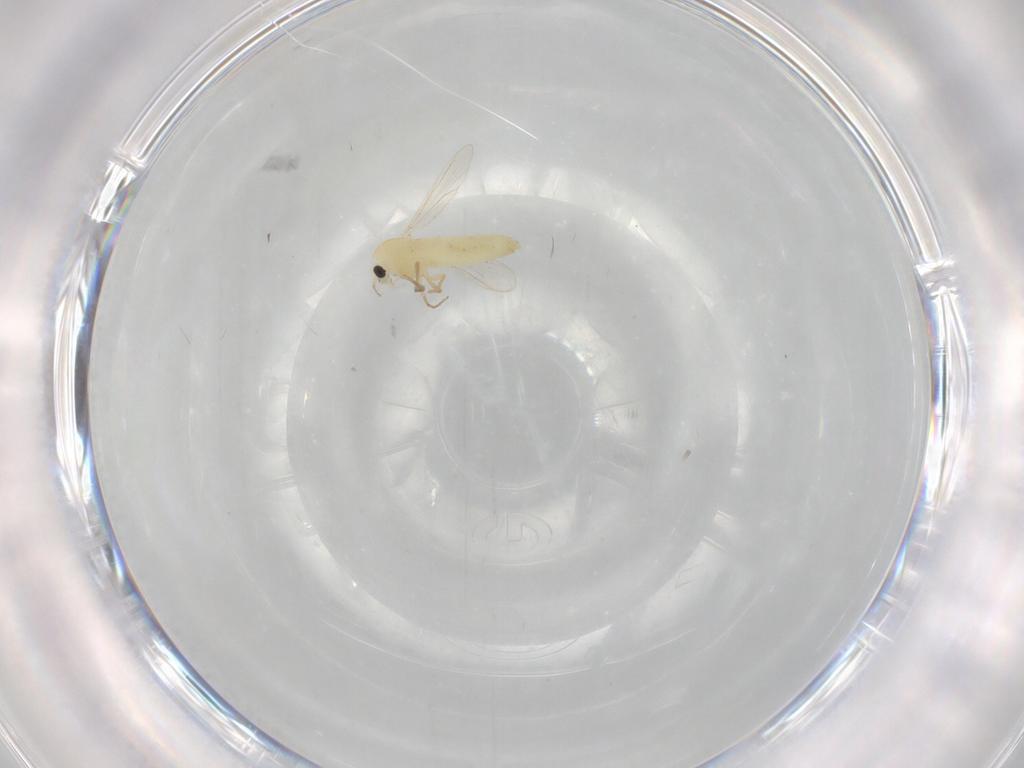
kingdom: Animalia
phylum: Arthropoda
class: Insecta
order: Diptera
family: Chironomidae
